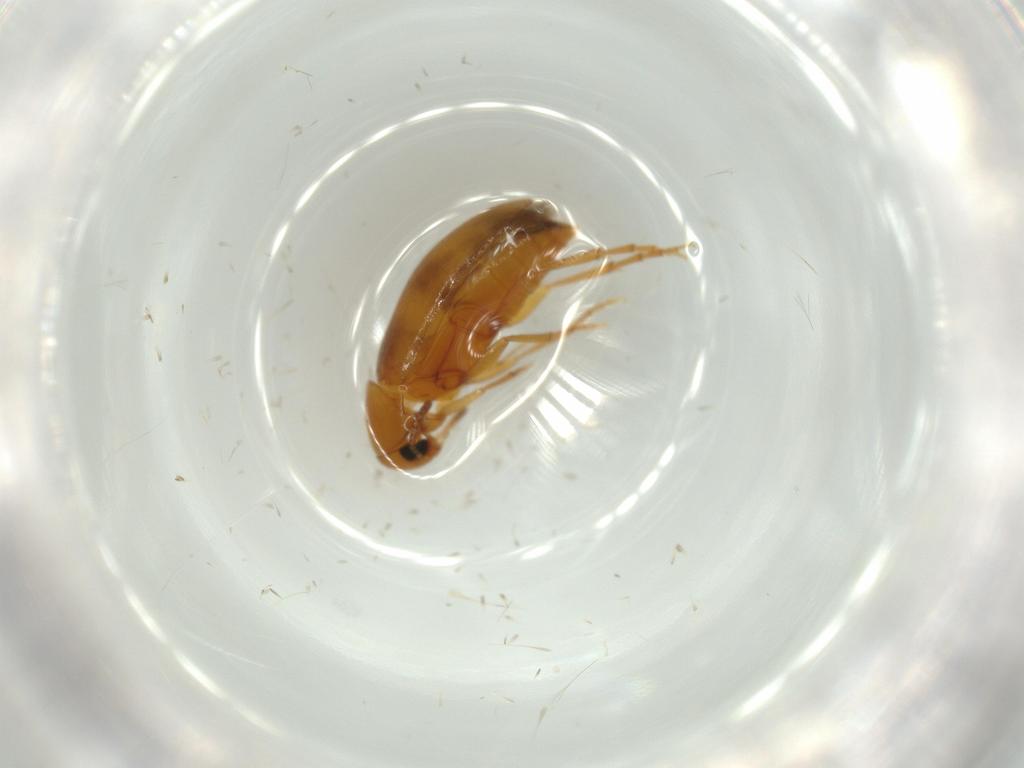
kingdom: Animalia
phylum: Arthropoda
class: Insecta
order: Coleoptera
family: Scraptiidae
